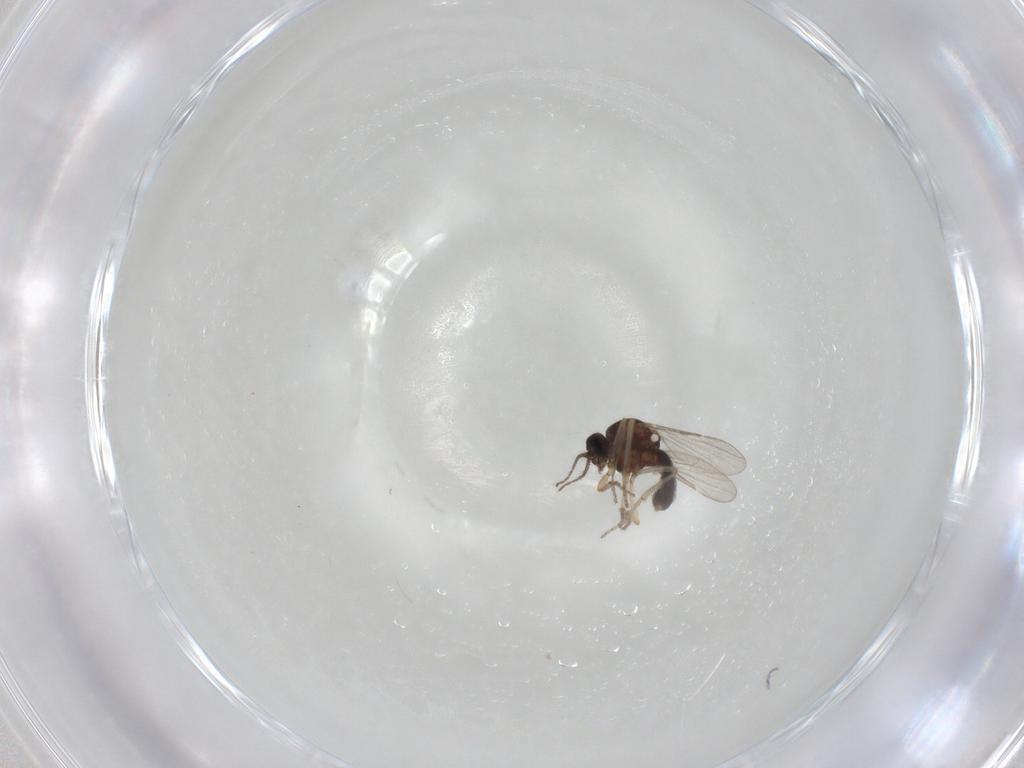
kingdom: Animalia
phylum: Arthropoda
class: Insecta
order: Diptera
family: Ceratopogonidae
